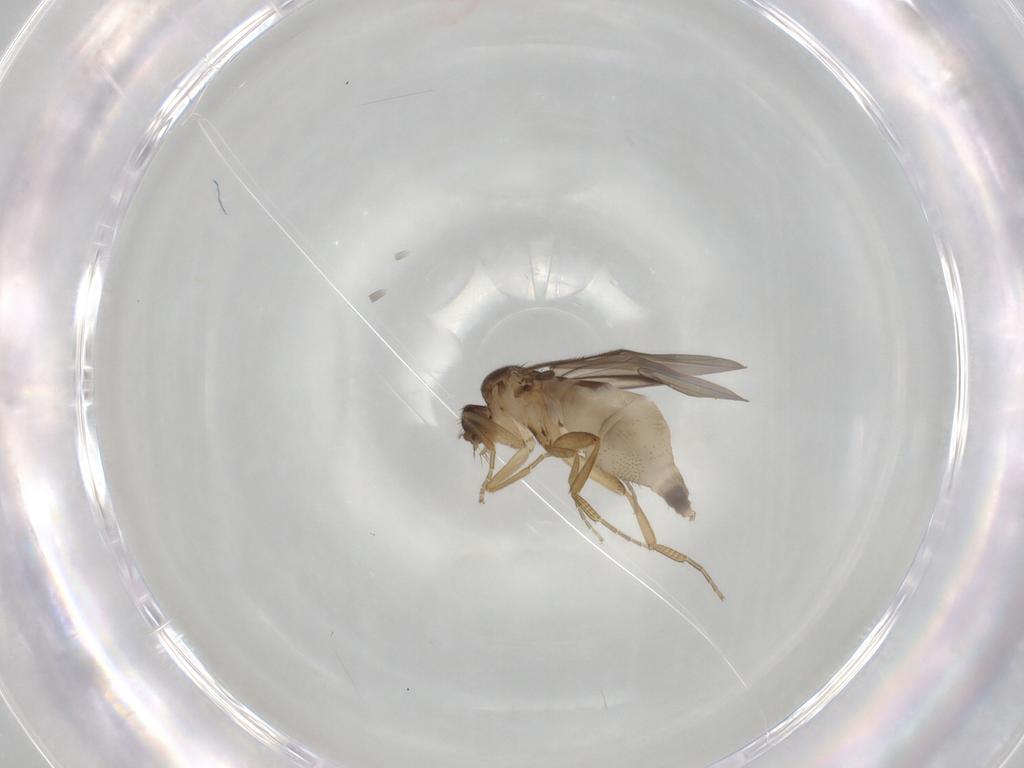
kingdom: Animalia
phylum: Arthropoda
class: Insecta
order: Diptera
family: Phoridae
